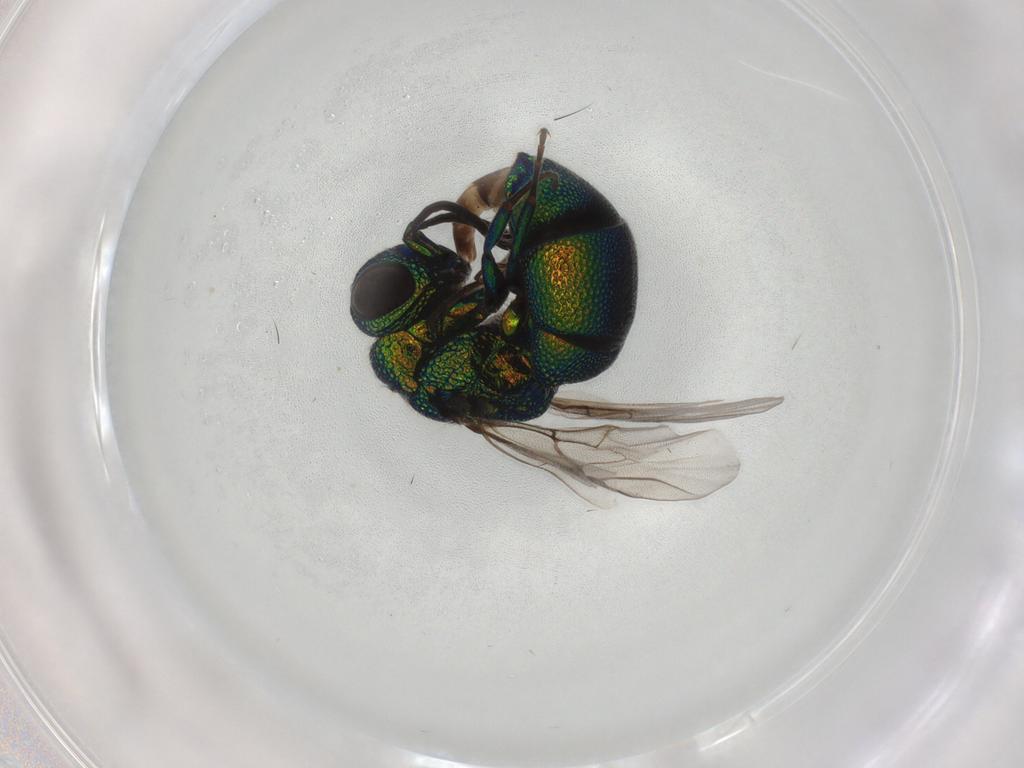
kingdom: Animalia
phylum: Arthropoda
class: Insecta
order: Hymenoptera
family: Chrysididae
